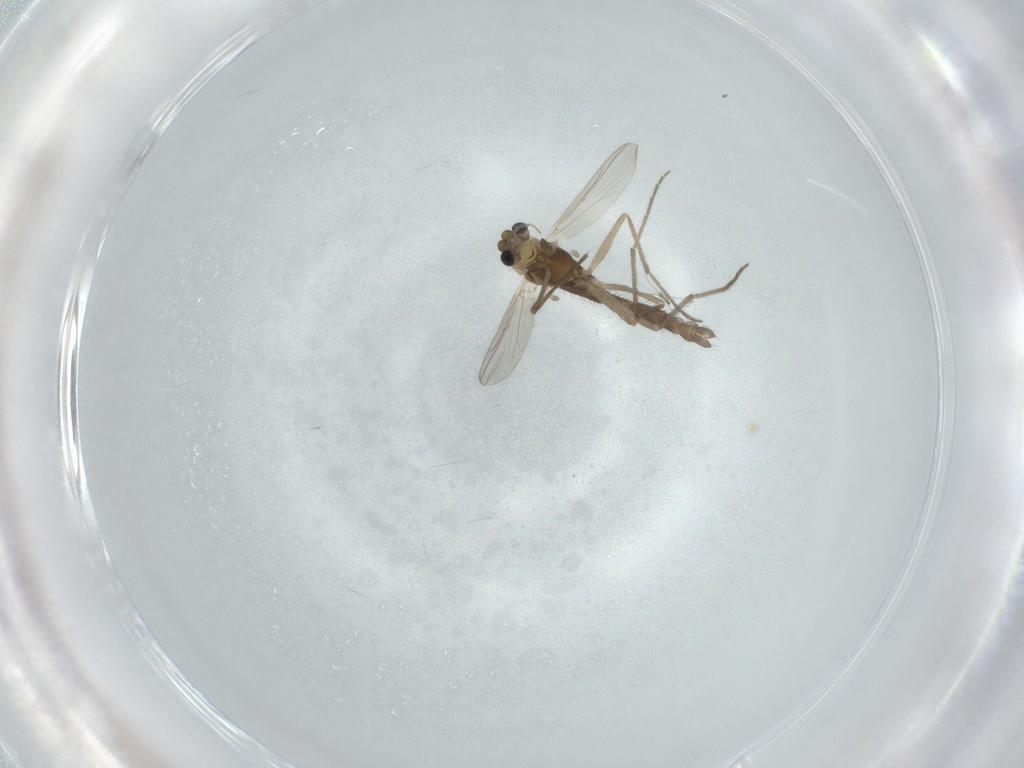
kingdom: Animalia
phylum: Arthropoda
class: Insecta
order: Diptera
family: Chironomidae
